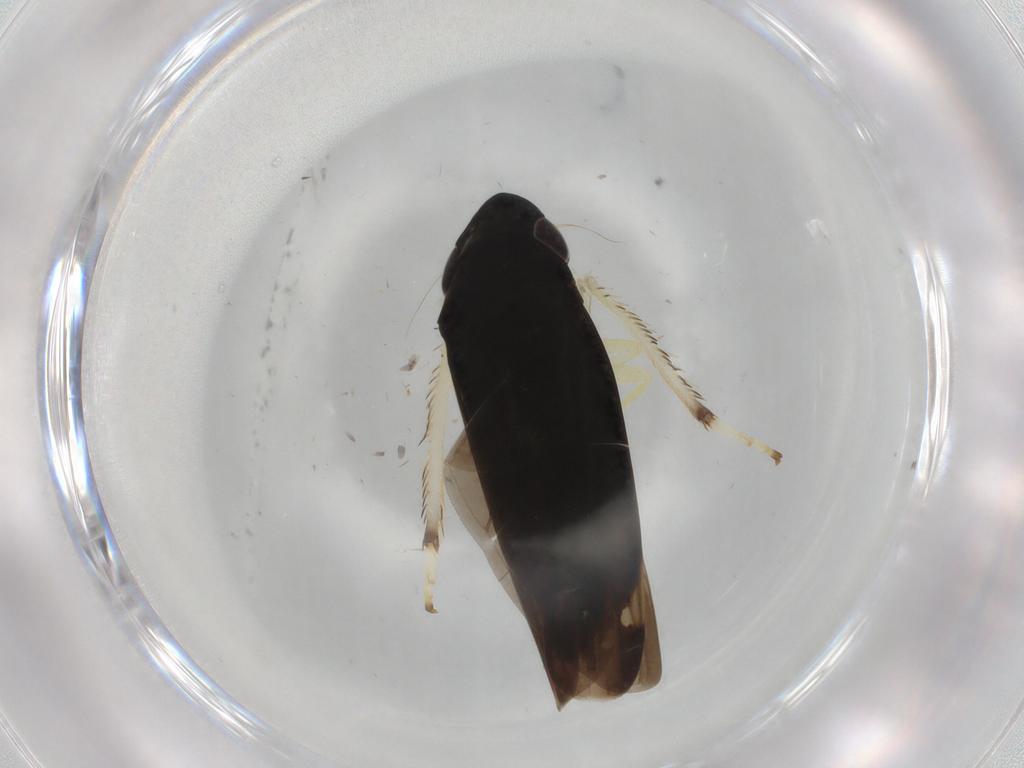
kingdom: Animalia
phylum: Arthropoda
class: Insecta
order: Hemiptera
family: Cicadellidae
